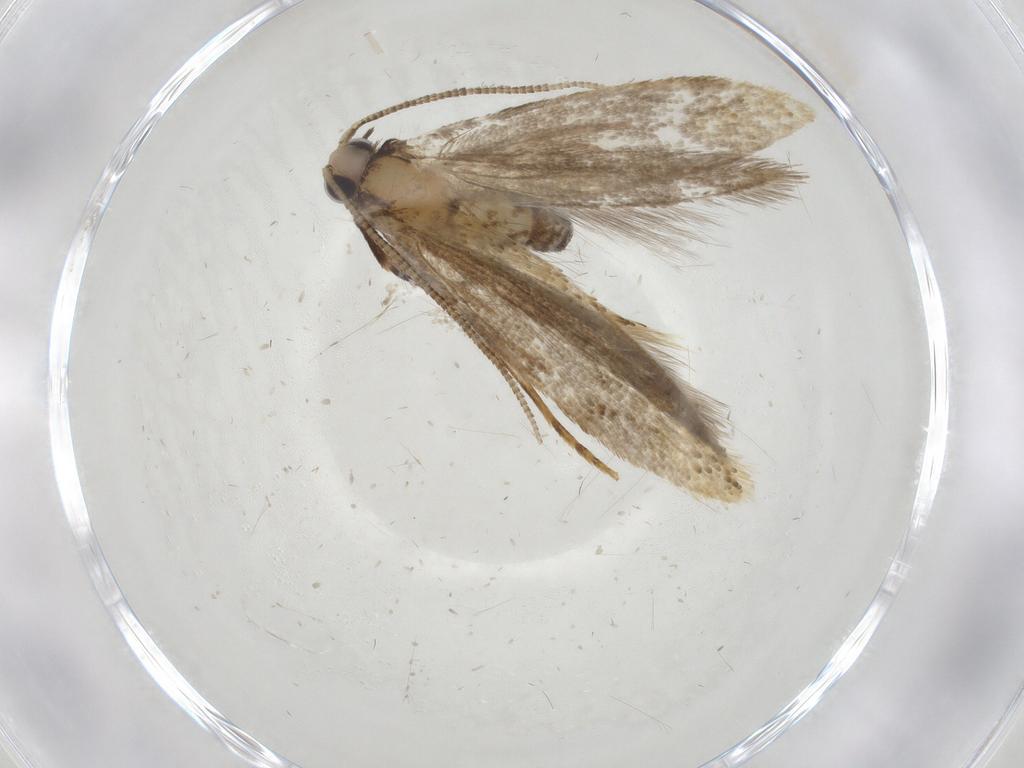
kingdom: Animalia
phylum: Arthropoda
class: Insecta
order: Lepidoptera
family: Tineidae
